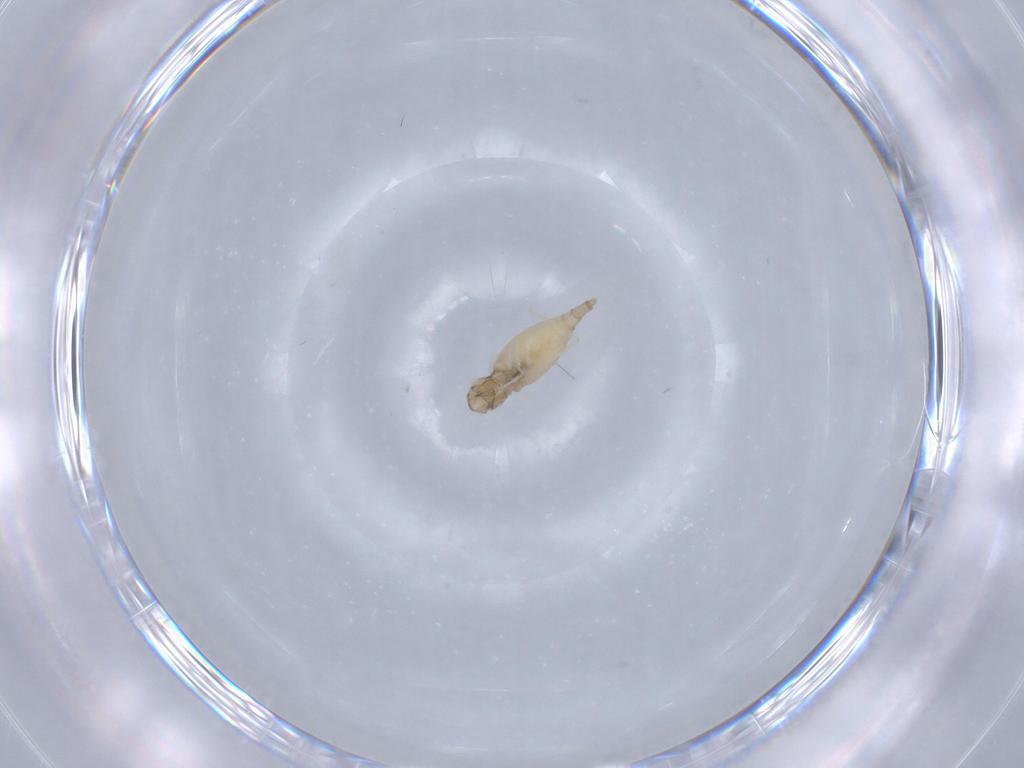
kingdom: Animalia
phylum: Arthropoda
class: Insecta
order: Diptera
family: Cecidomyiidae
